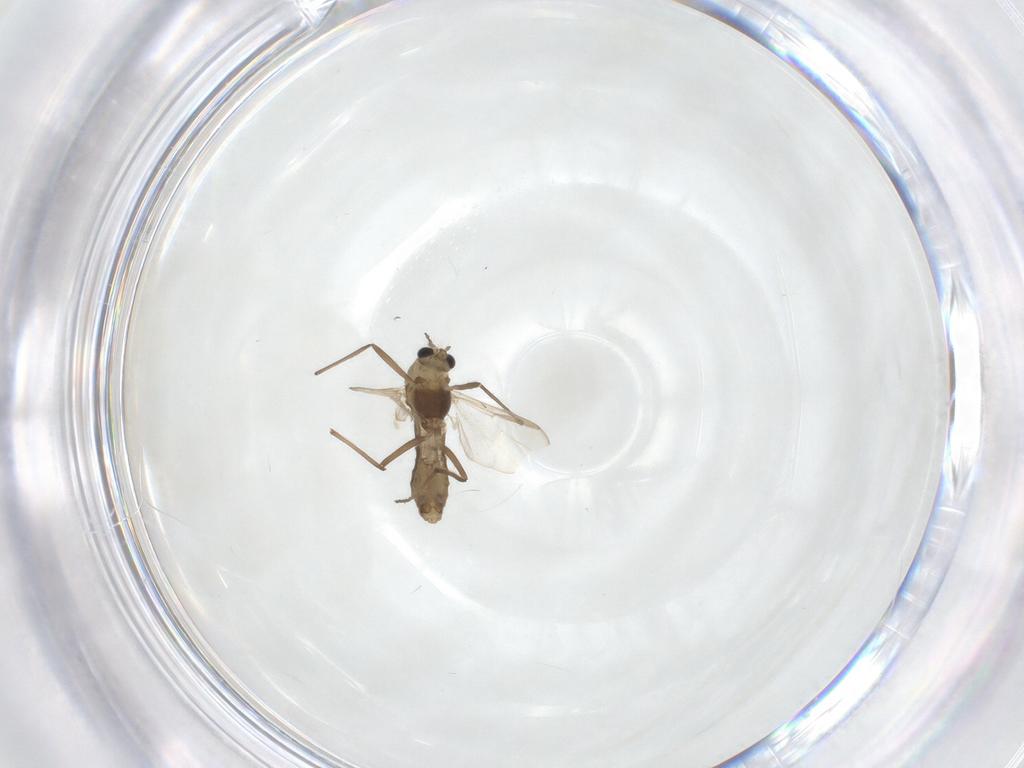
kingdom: Animalia
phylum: Arthropoda
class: Insecta
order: Diptera
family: Chironomidae
